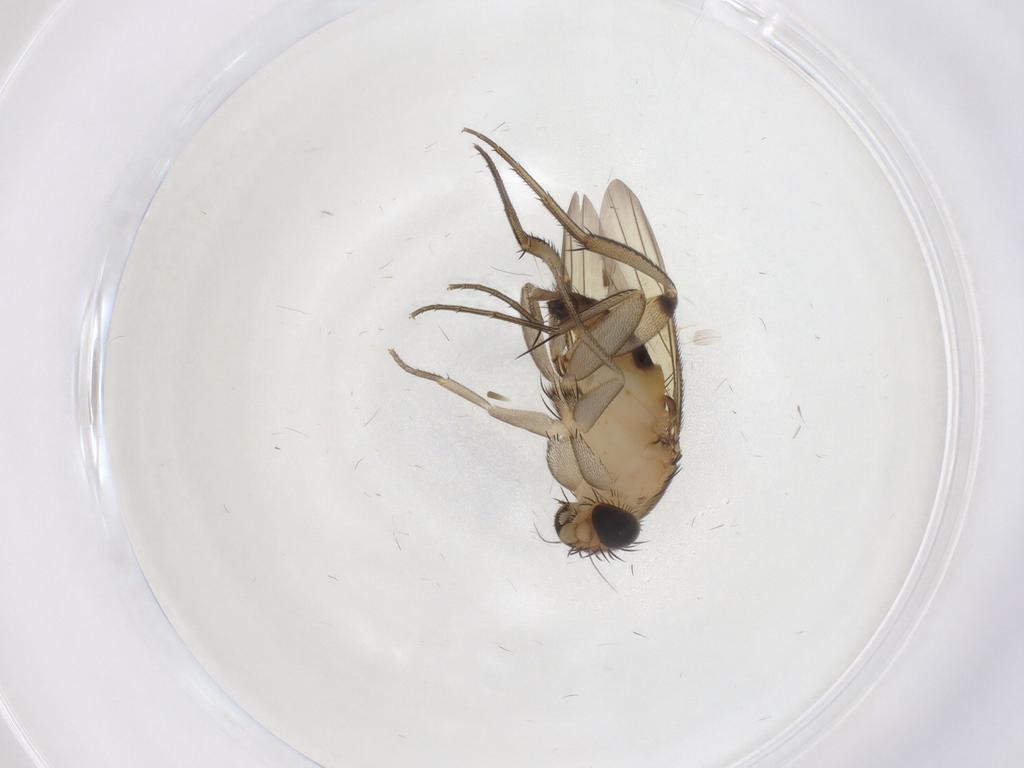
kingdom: Animalia
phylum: Arthropoda
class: Insecta
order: Diptera
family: Phoridae
